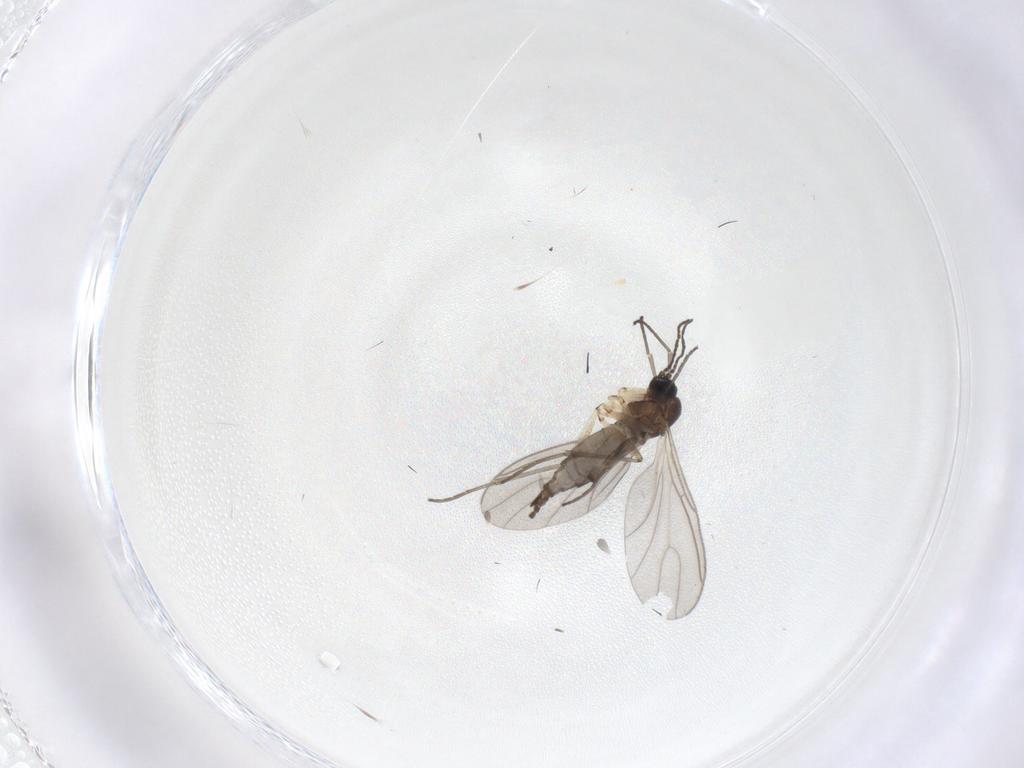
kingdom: Animalia
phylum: Arthropoda
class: Insecta
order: Diptera
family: Sciaridae
